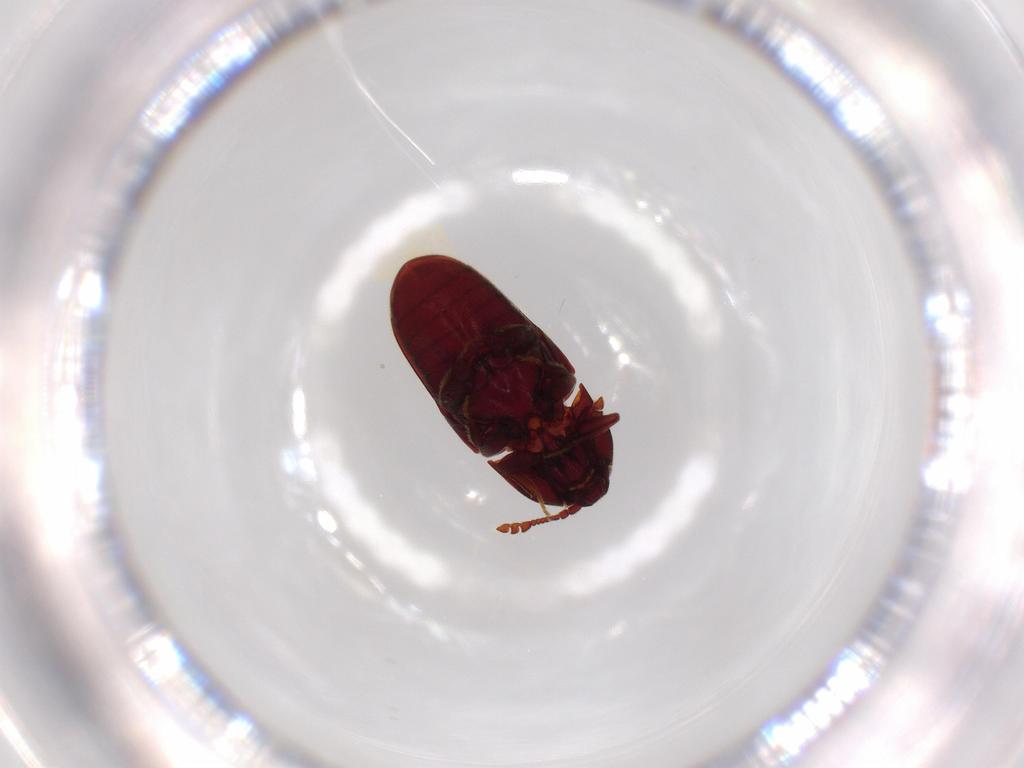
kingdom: Animalia
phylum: Arthropoda
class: Insecta
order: Coleoptera
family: Throscidae
